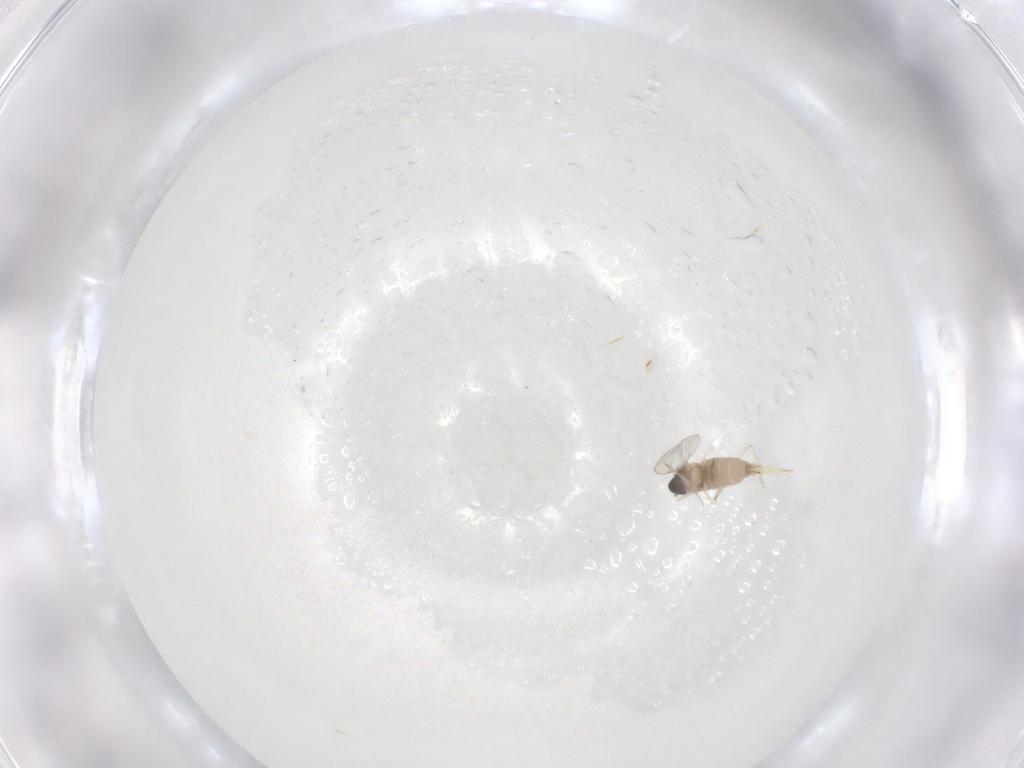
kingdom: Animalia
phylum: Arthropoda
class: Insecta
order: Diptera
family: Cecidomyiidae
